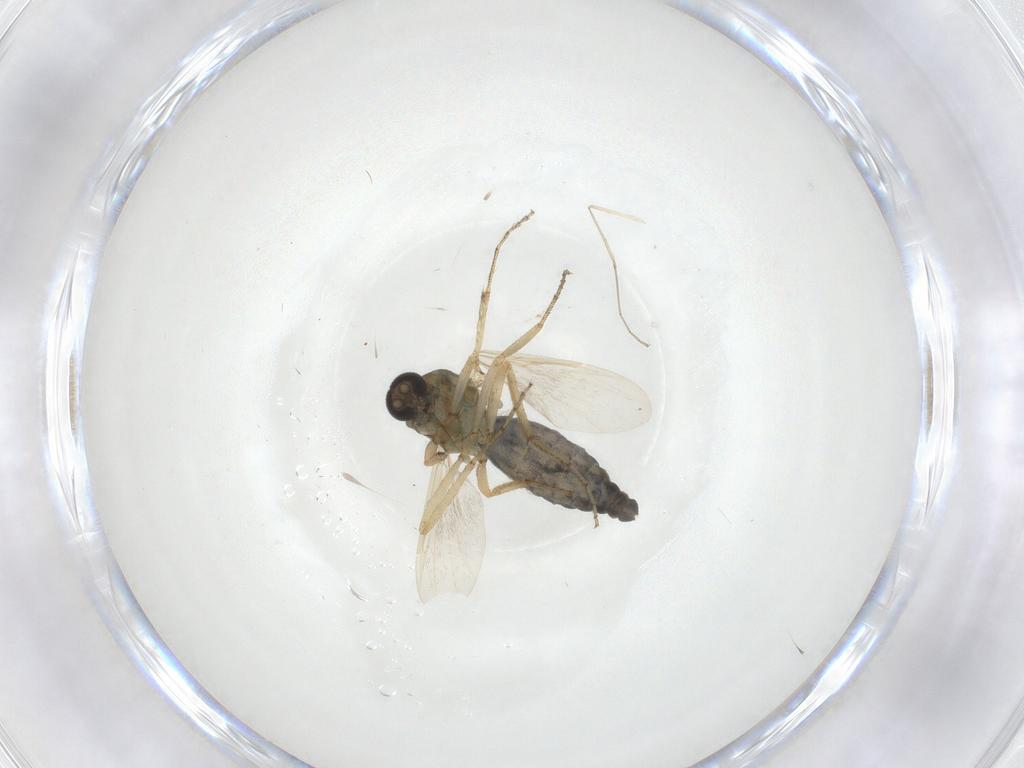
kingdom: Animalia
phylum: Arthropoda
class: Insecta
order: Diptera
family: Ceratopogonidae
